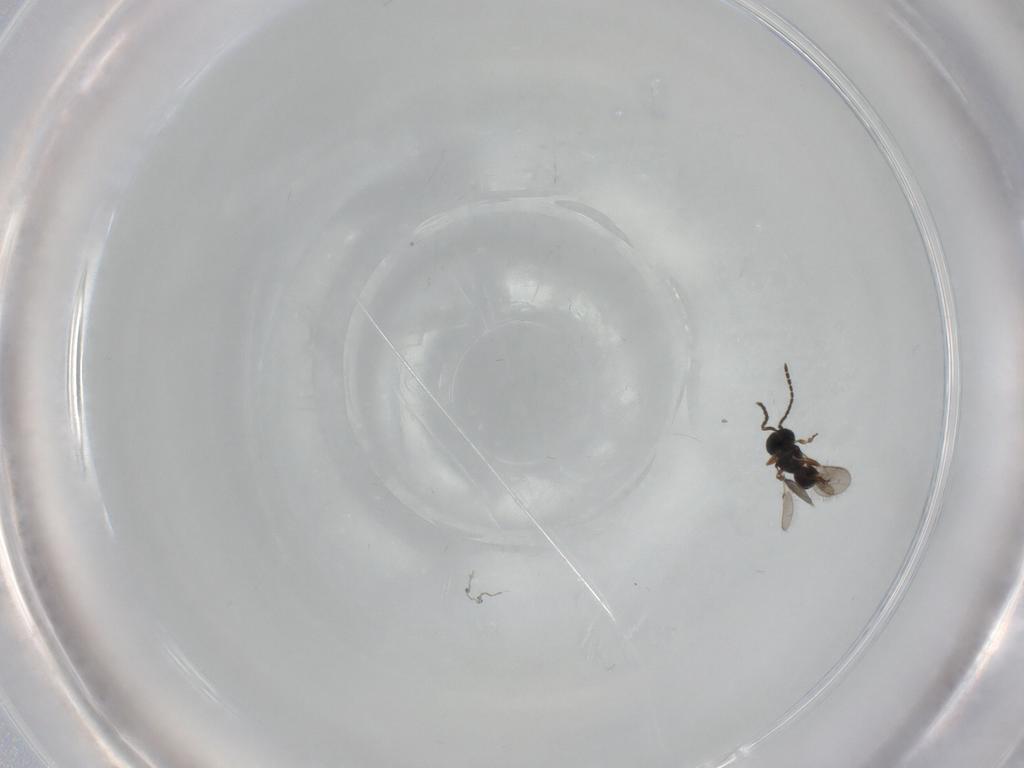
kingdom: Animalia
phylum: Arthropoda
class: Insecta
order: Hymenoptera
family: Scelionidae
